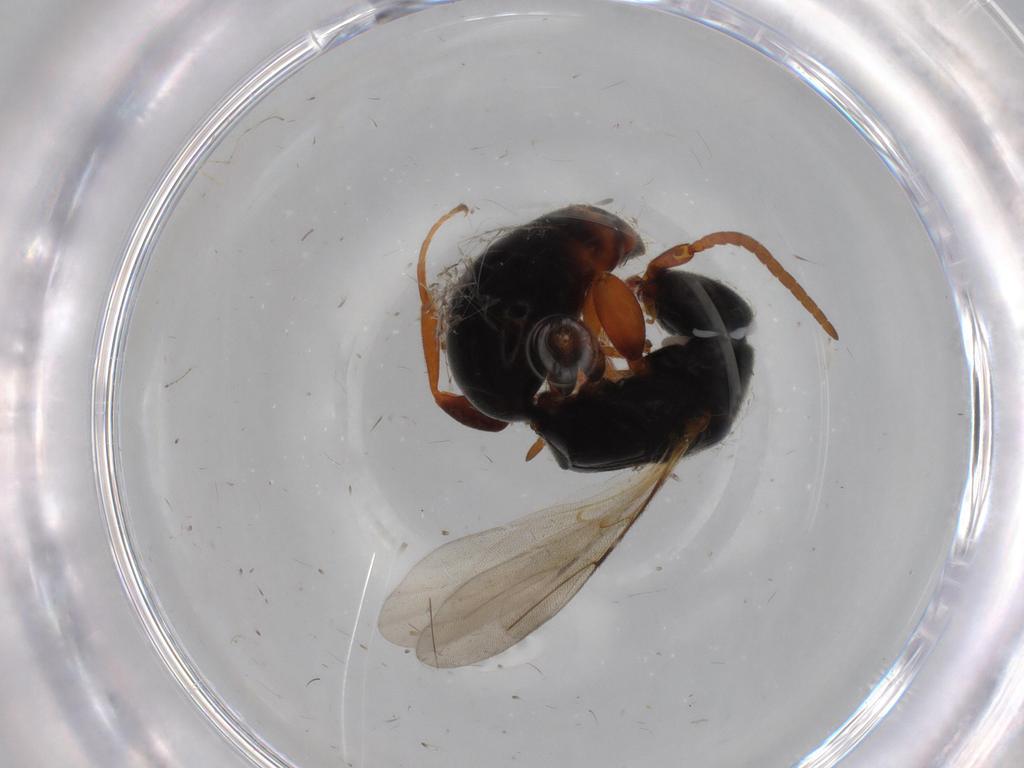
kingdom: Animalia
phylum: Arthropoda
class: Insecta
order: Hymenoptera
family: Bethylidae
